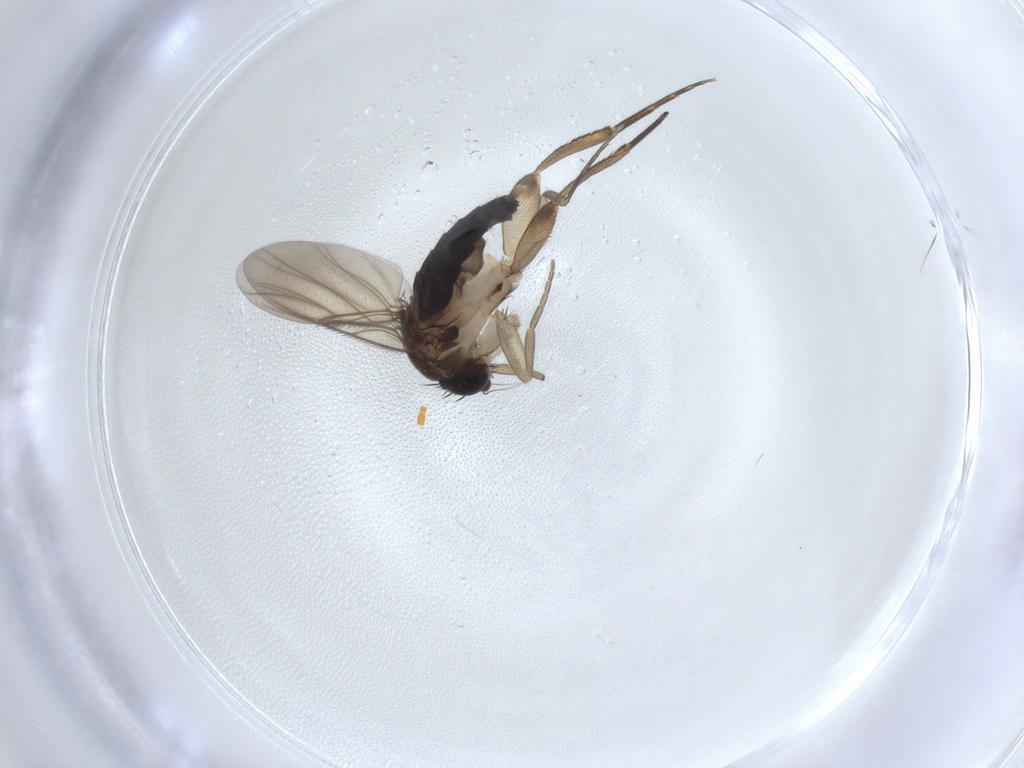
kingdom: Animalia
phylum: Arthropoda
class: Insecta
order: Diptera
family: Phoridae
